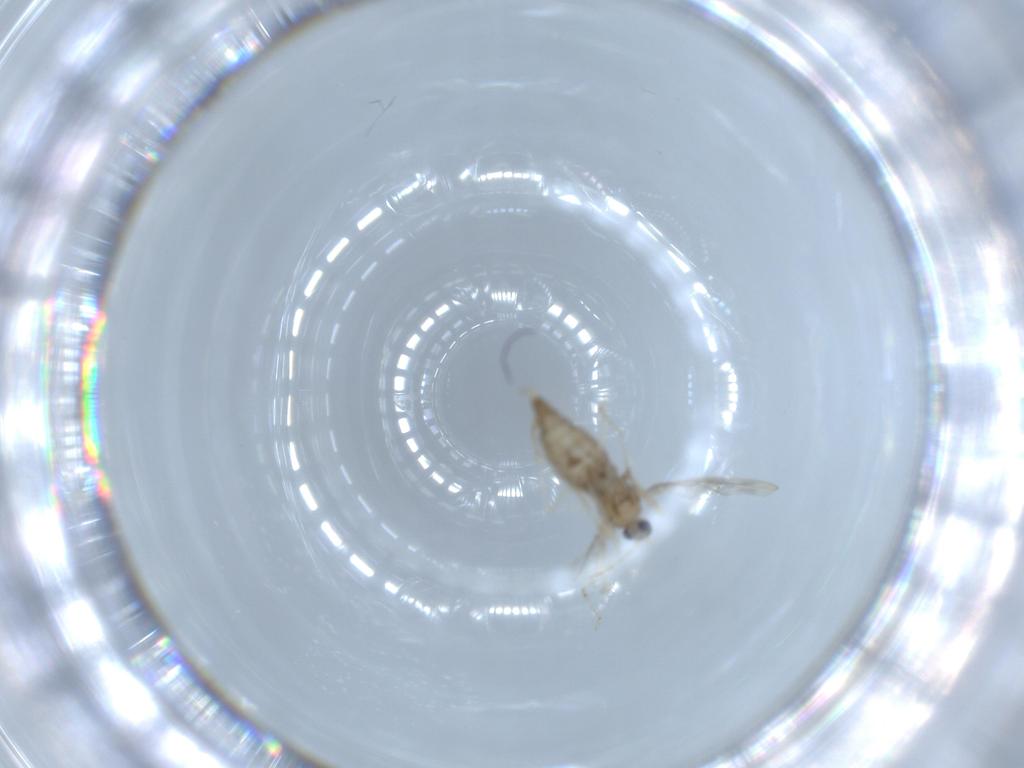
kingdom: Animalia
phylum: Arthropoda
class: Insecta
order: Diptera
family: Cecidomyiidae
